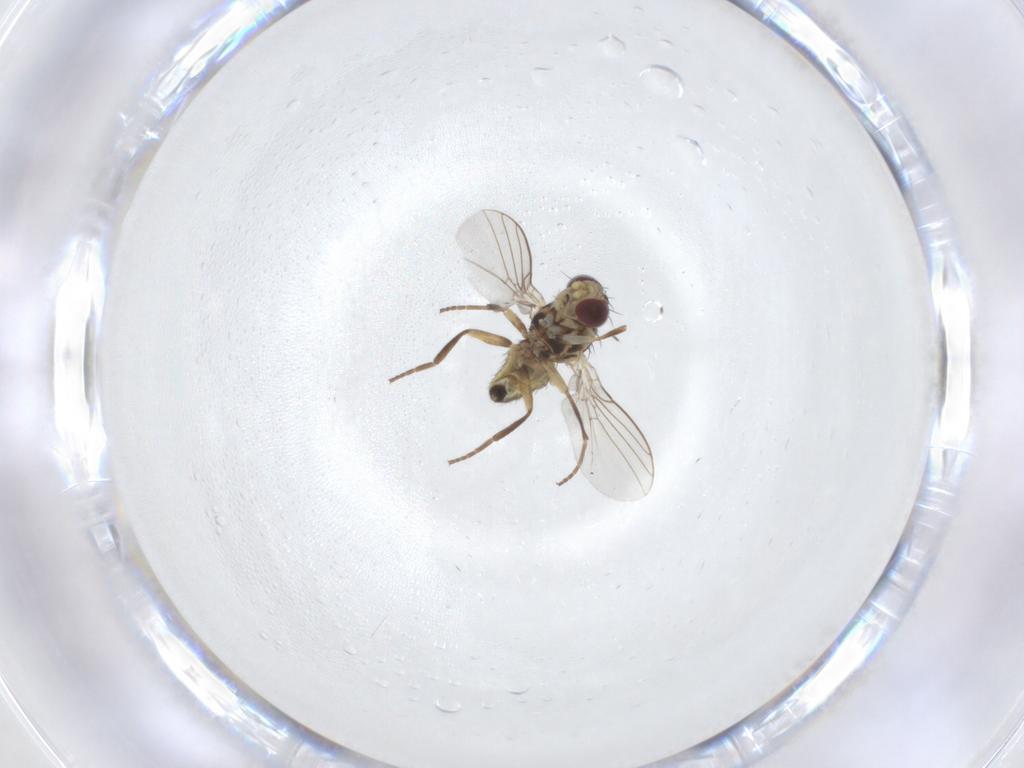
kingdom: Animalia
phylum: Arthropoda
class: Insecta
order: Diptera
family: Agromyzidae
